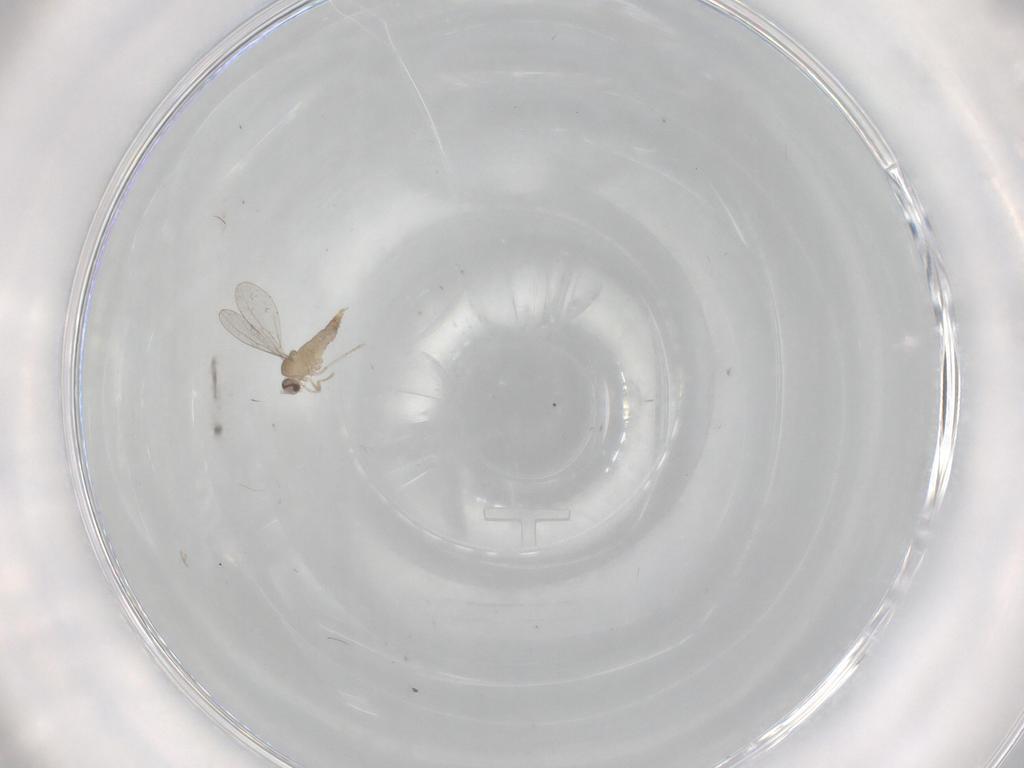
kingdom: Animalia
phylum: Arthropoda
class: Insecta
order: Diptera
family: Cecidomyiidae
